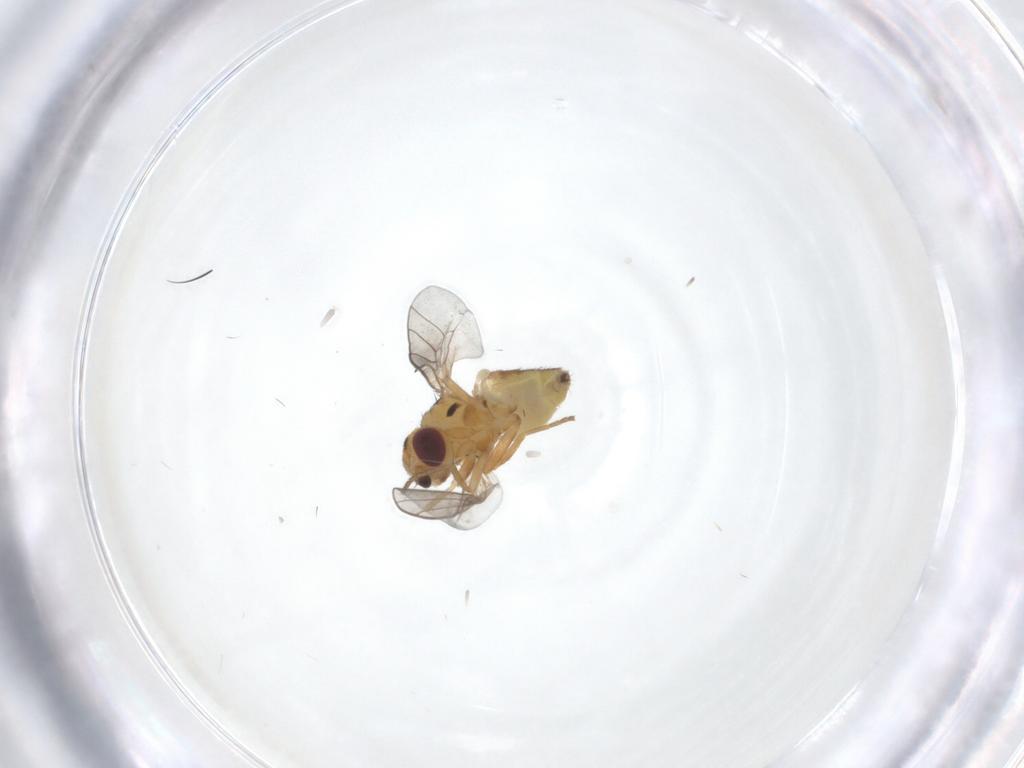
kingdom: Animalia
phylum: Arthropoda
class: Insecta
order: Diptera
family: Chloropidae
